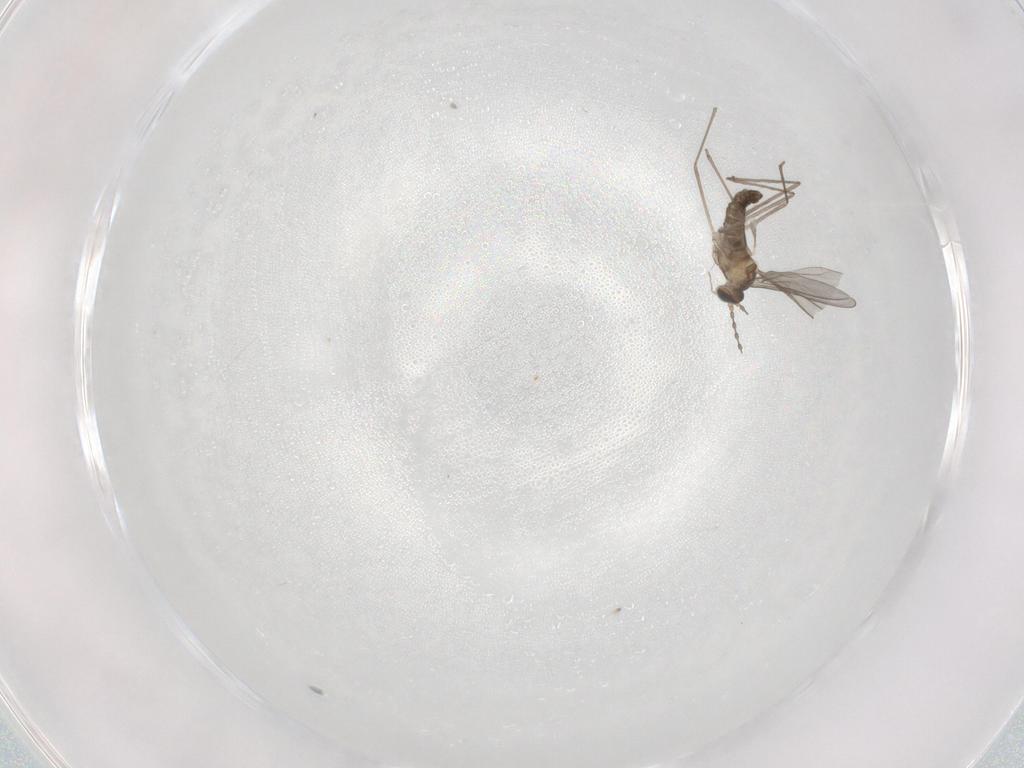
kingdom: Animalia
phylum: Arthropoda
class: Insecta
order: Diptera
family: Cecidomyiidae
